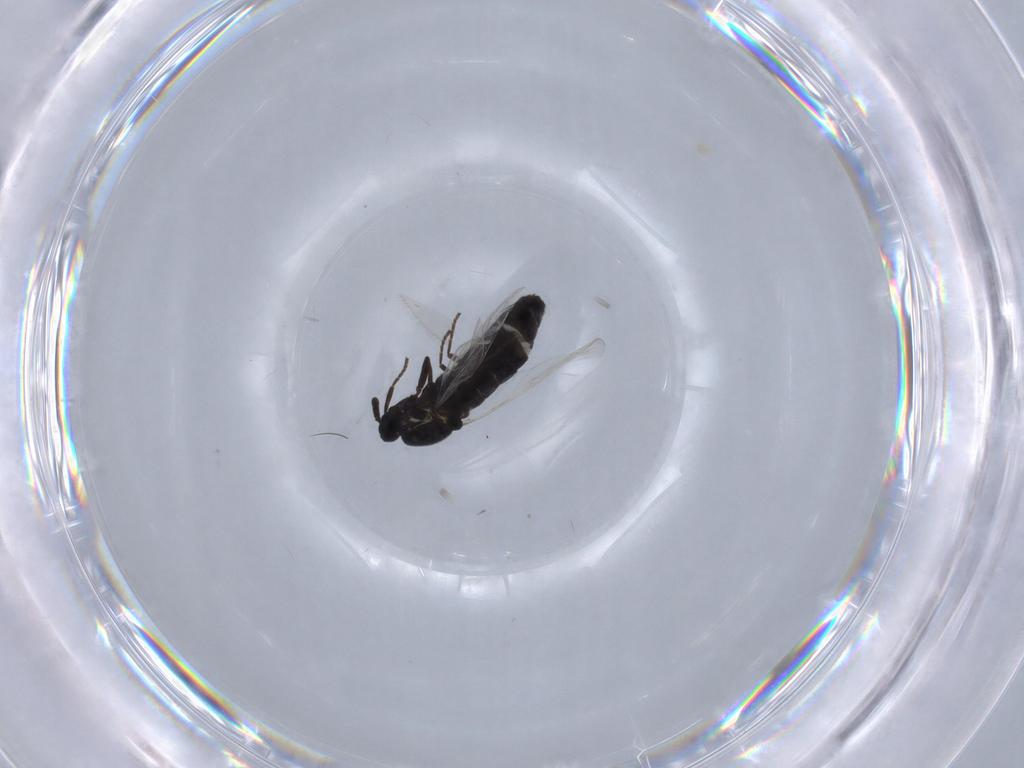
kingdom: Animalia
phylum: Arthropoda
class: Insecta
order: Diptera
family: Scatopsidae
